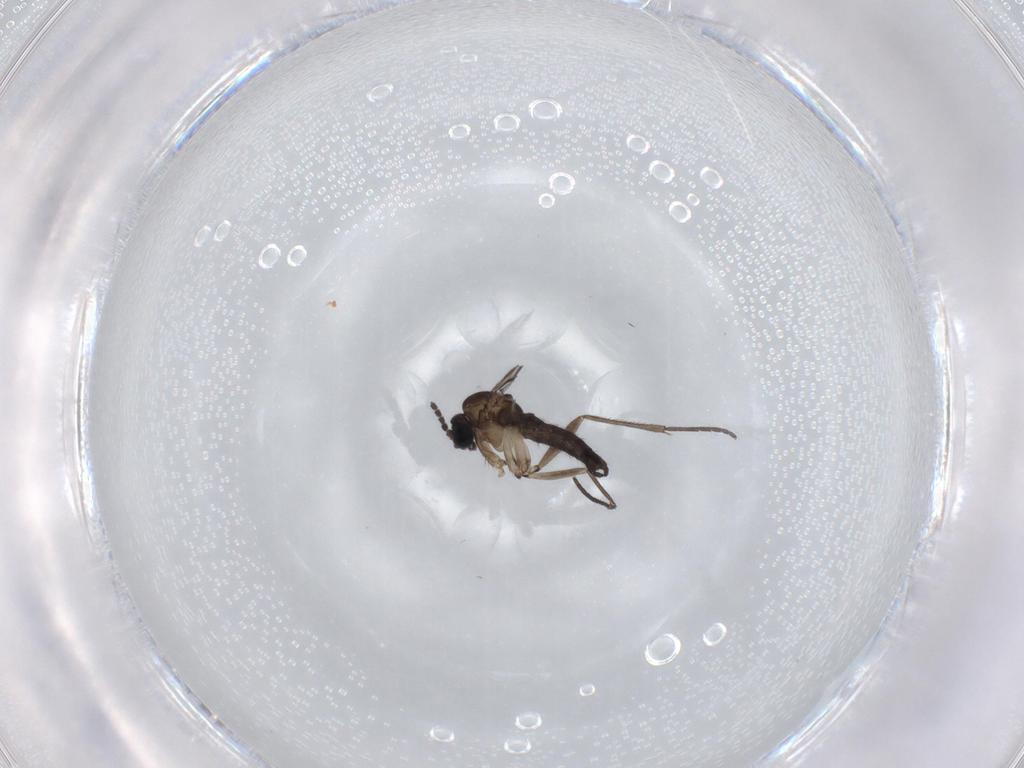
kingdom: Animalia
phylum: Arthropoda
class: Insecta
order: Diptera
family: Sciaridae
